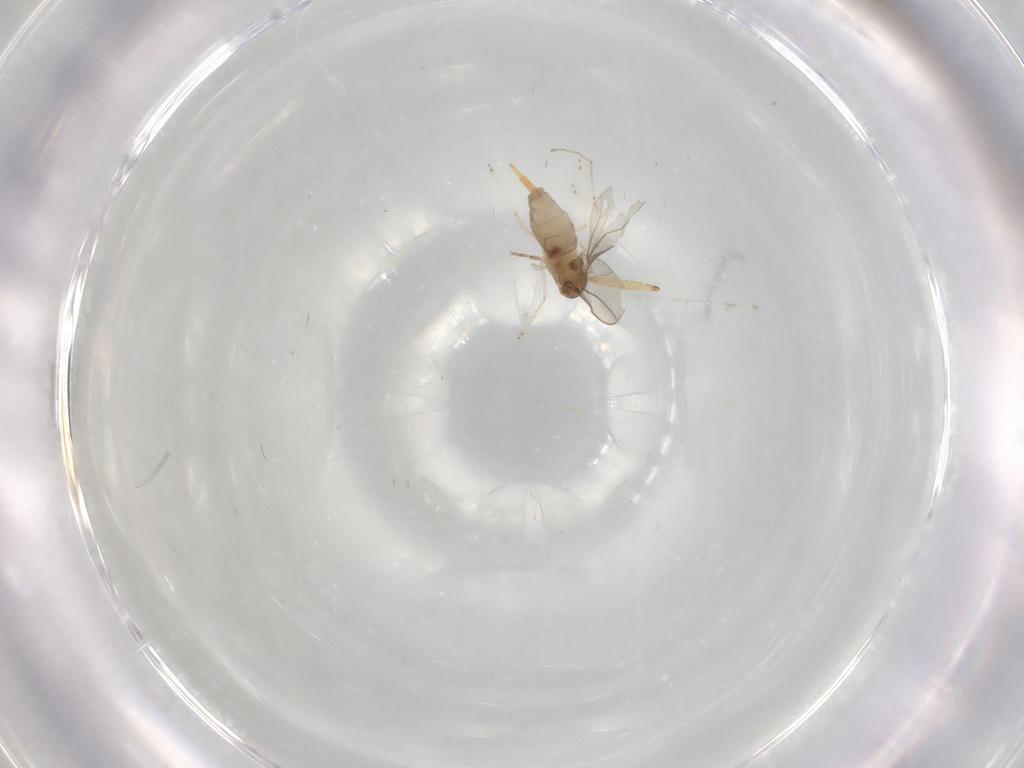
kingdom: Animalia
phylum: Arthropoda
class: Insecta
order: Diptera
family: Cecidomyiidae
